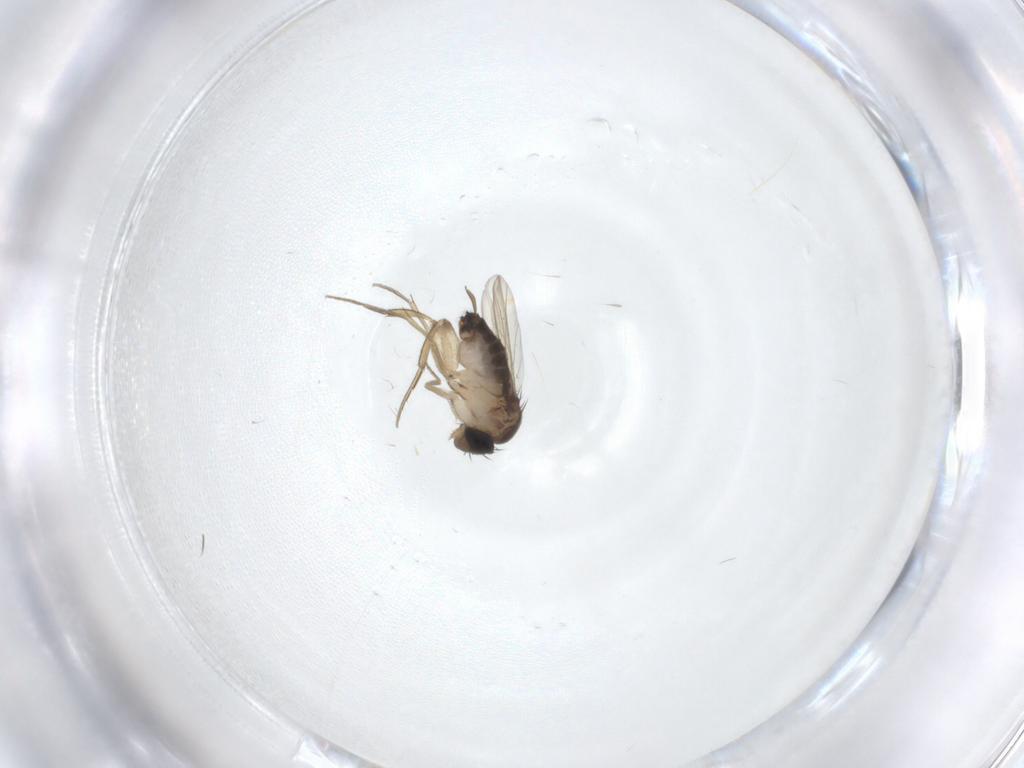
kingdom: Animalia
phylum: Arthropoda
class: Insecta
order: Diptera
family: Phoridae
